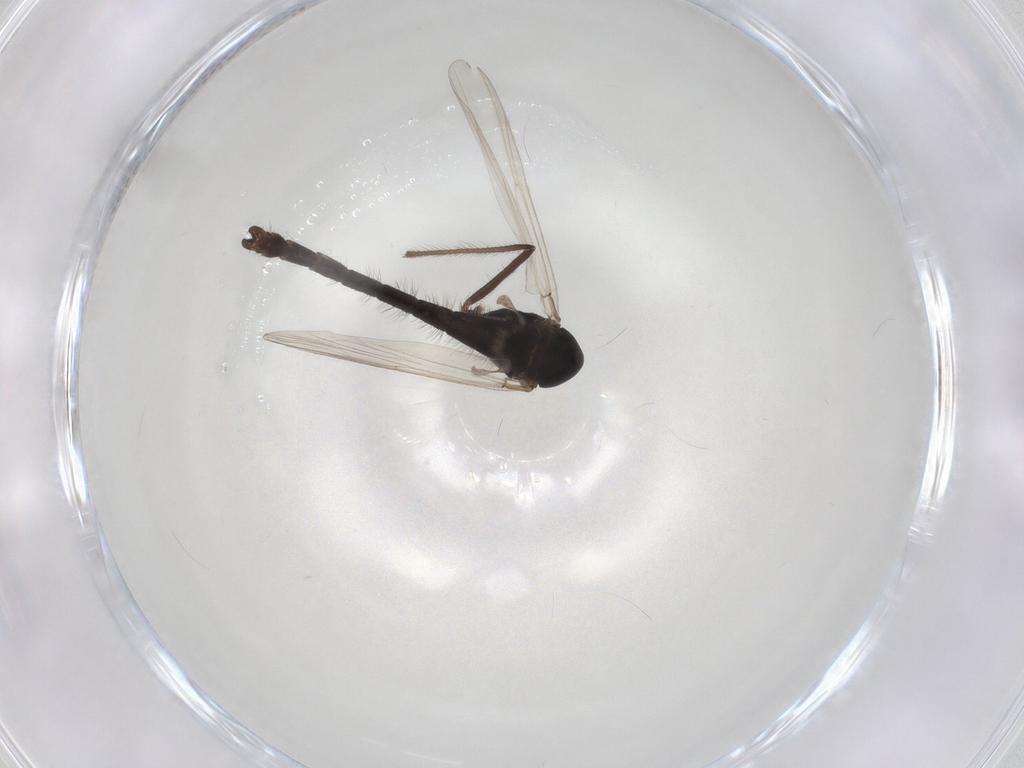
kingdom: Animalia
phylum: Arthropoda
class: Insecta
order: Diptera
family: Chironomidae
